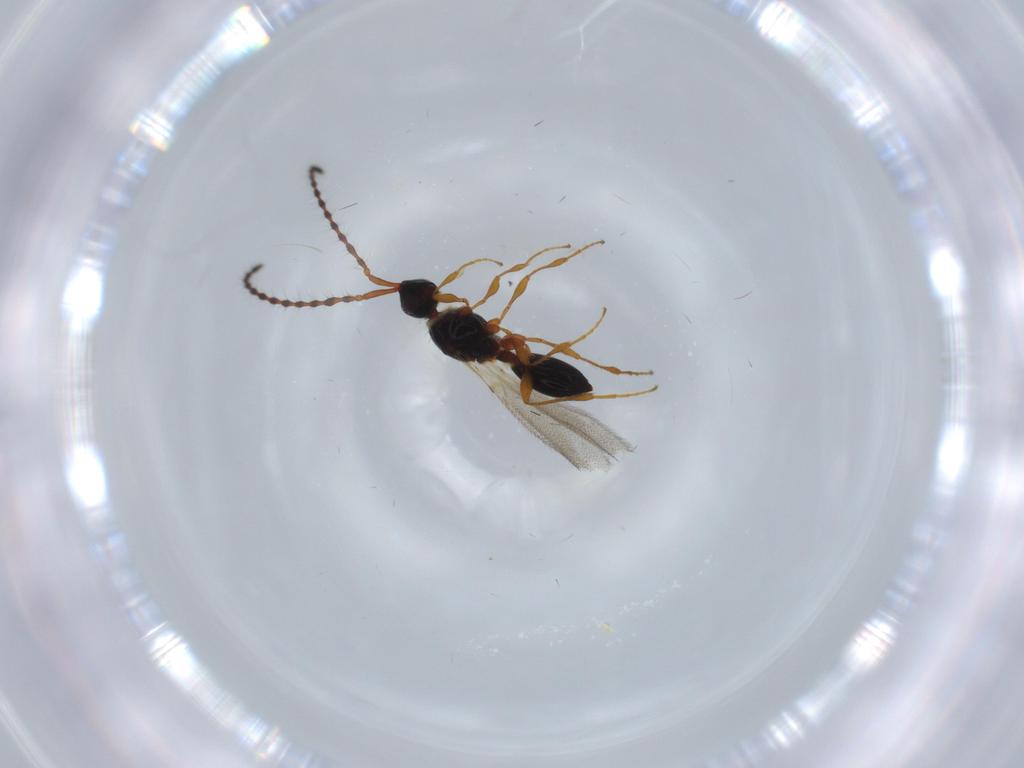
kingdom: Animalia
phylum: Arthropoda
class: Insecta
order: Hymenoptera
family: Diapriidae
